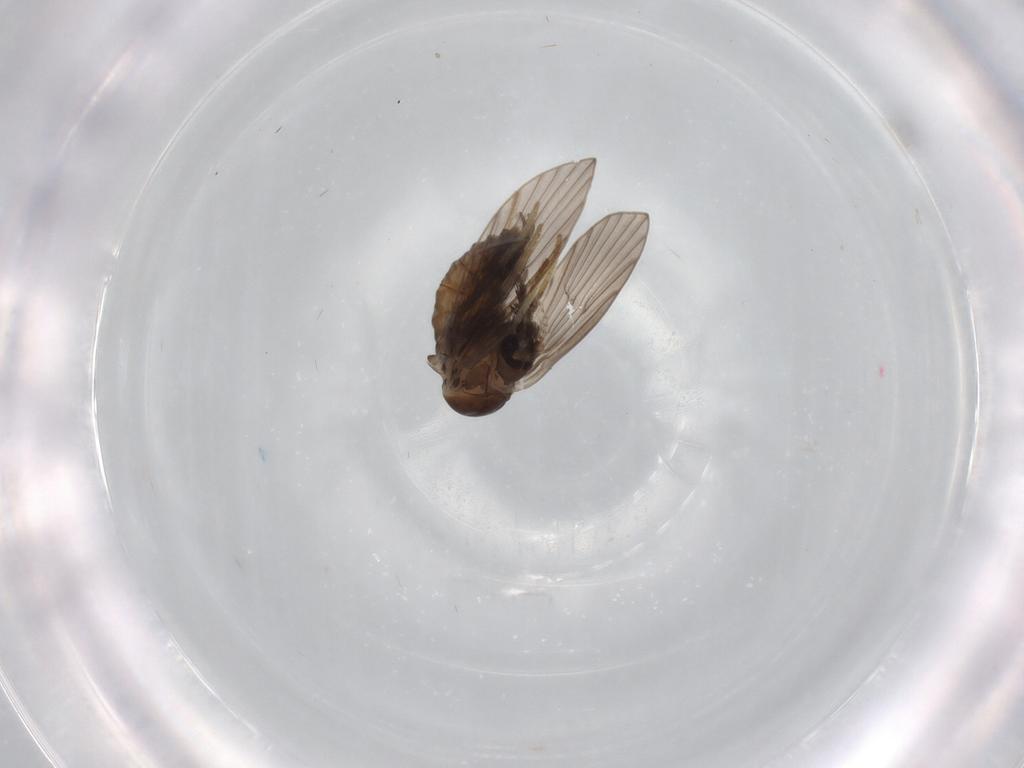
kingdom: Animalia
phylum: Arthropoda
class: Insecta
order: Diptera
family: Psychodidae
